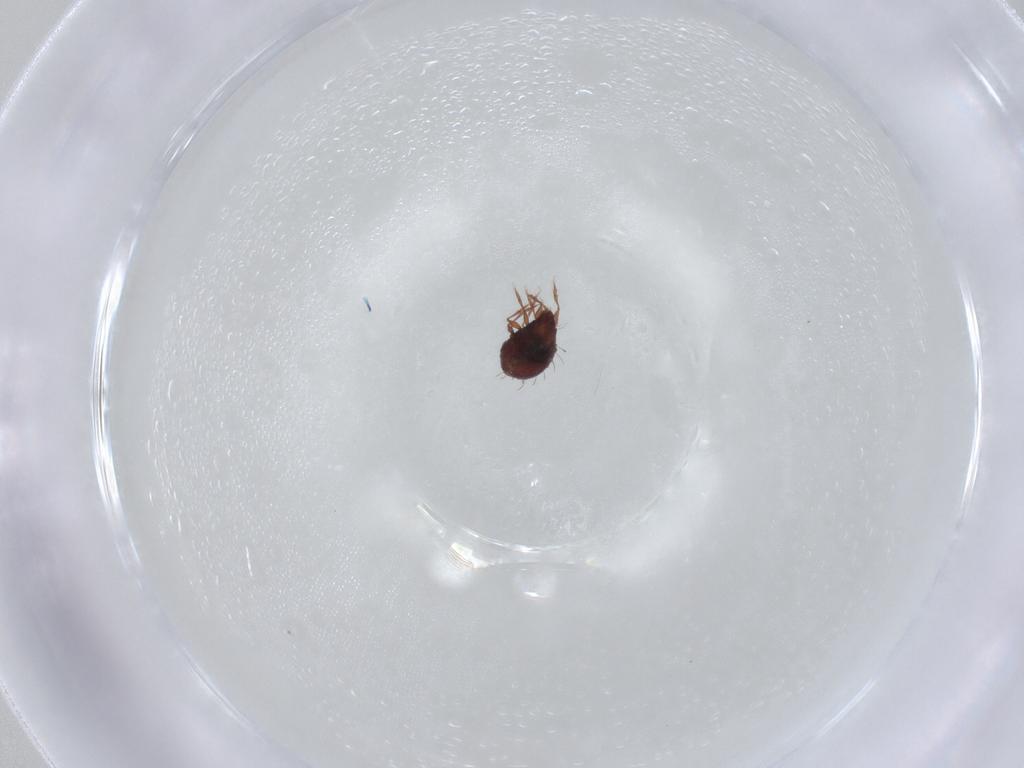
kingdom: Animalia
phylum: Arthropoda
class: Arachnida
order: Sarcoptiformes
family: Caloppiidae
